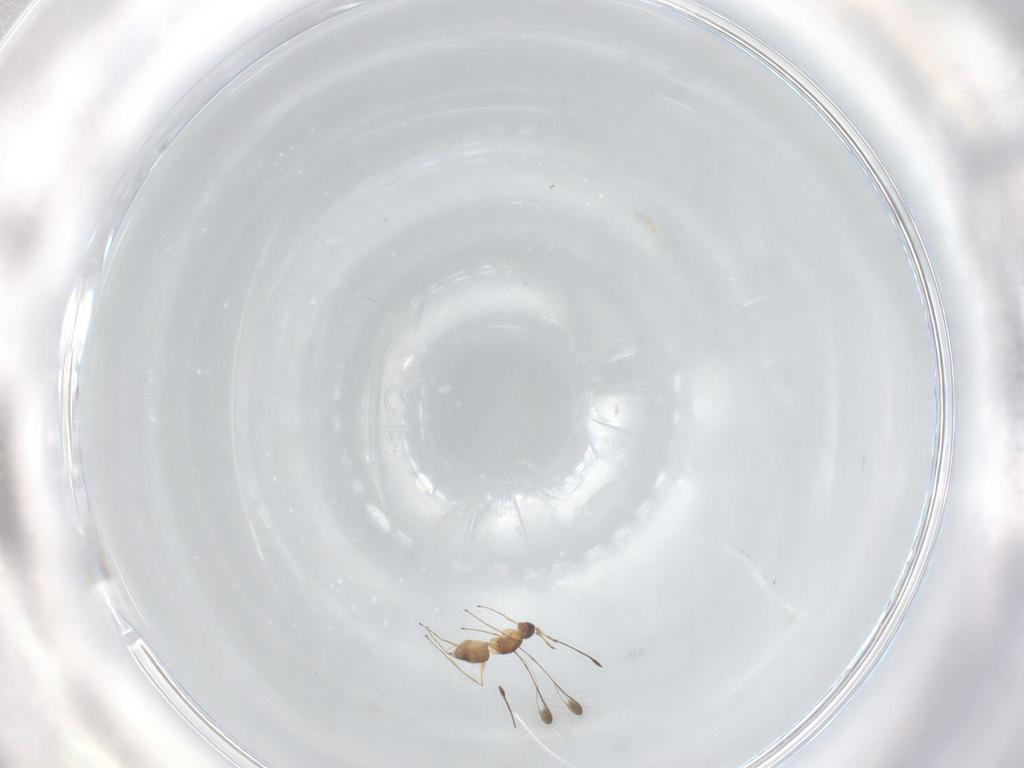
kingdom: Animalia
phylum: Arthropoda
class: Insecta
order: Hymenoptera
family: Mymaridae
